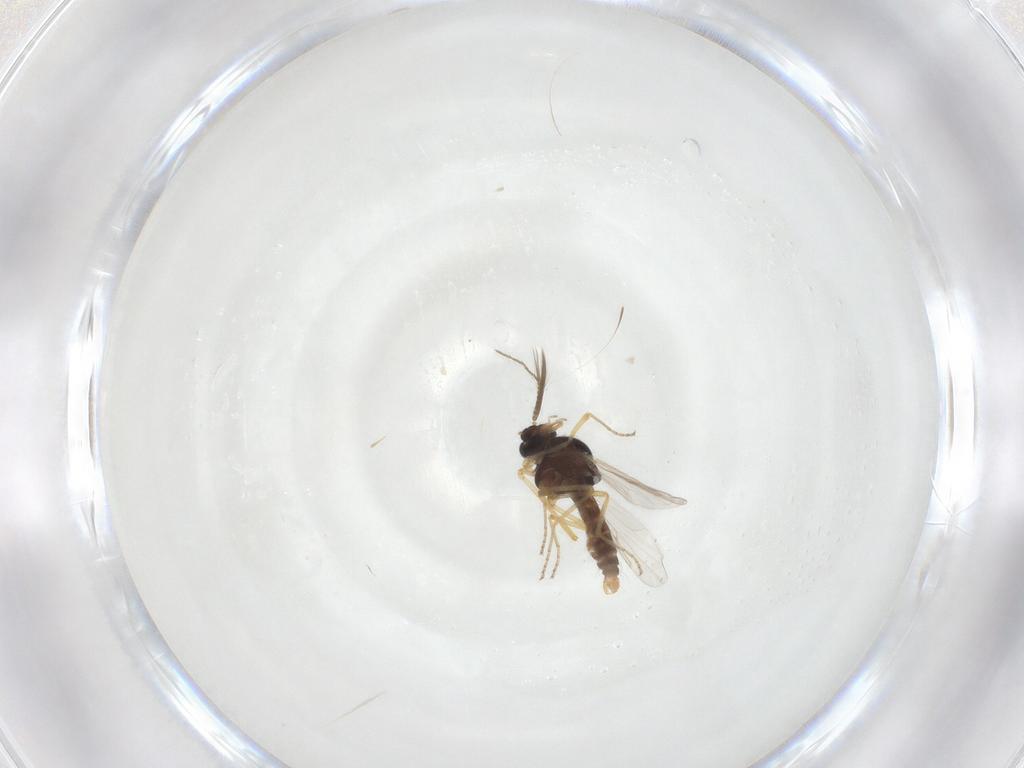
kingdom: Animalia
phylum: Arthropoda
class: Insecta
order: Diptera
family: Ceratopogonidae
